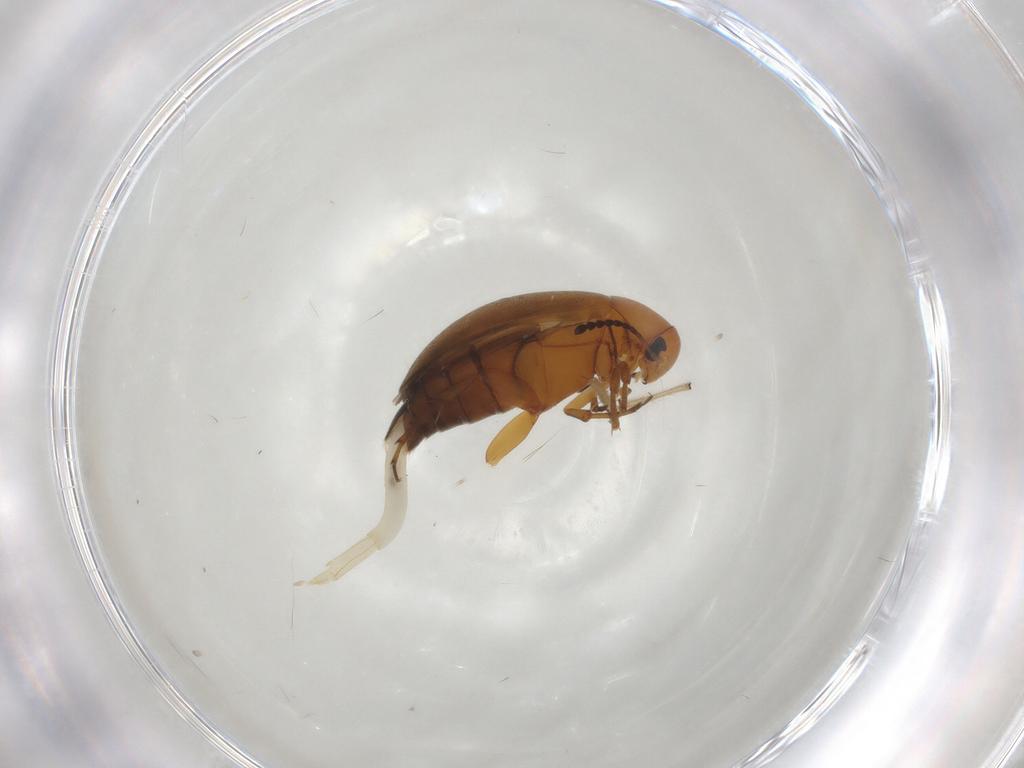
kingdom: Animalia
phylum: Arthropoda
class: Insecta
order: Coleoptera
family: Scraptiidae
